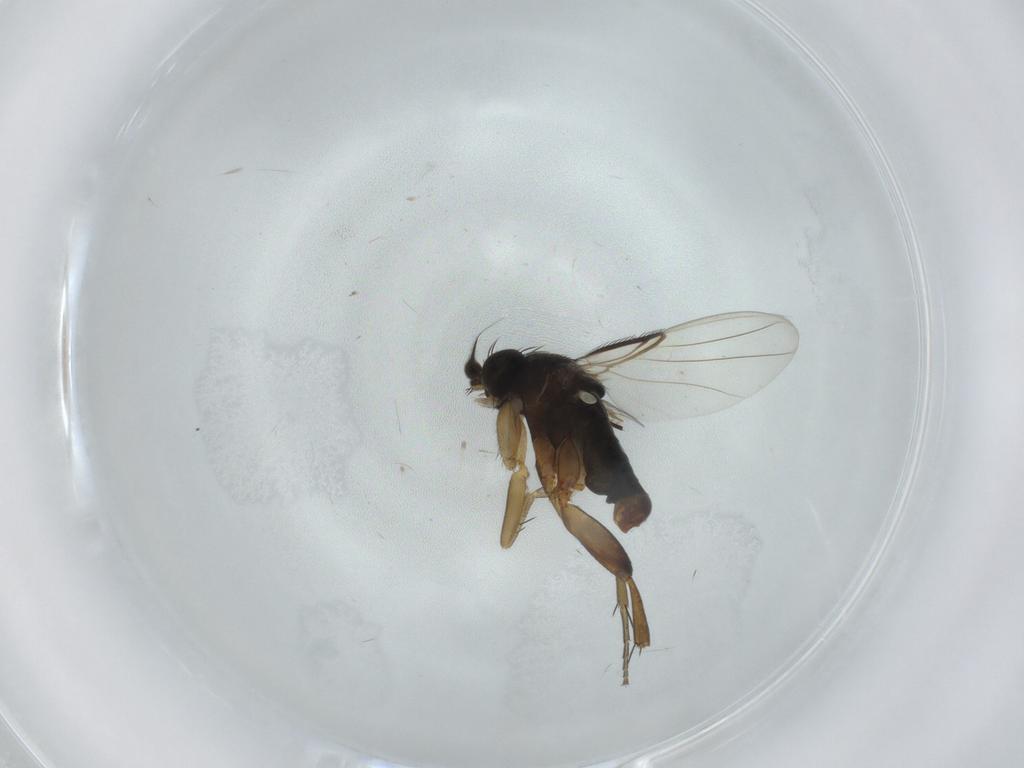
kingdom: Animalia
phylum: Arthropoda
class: Insecta
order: Diptera
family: Phoridae
